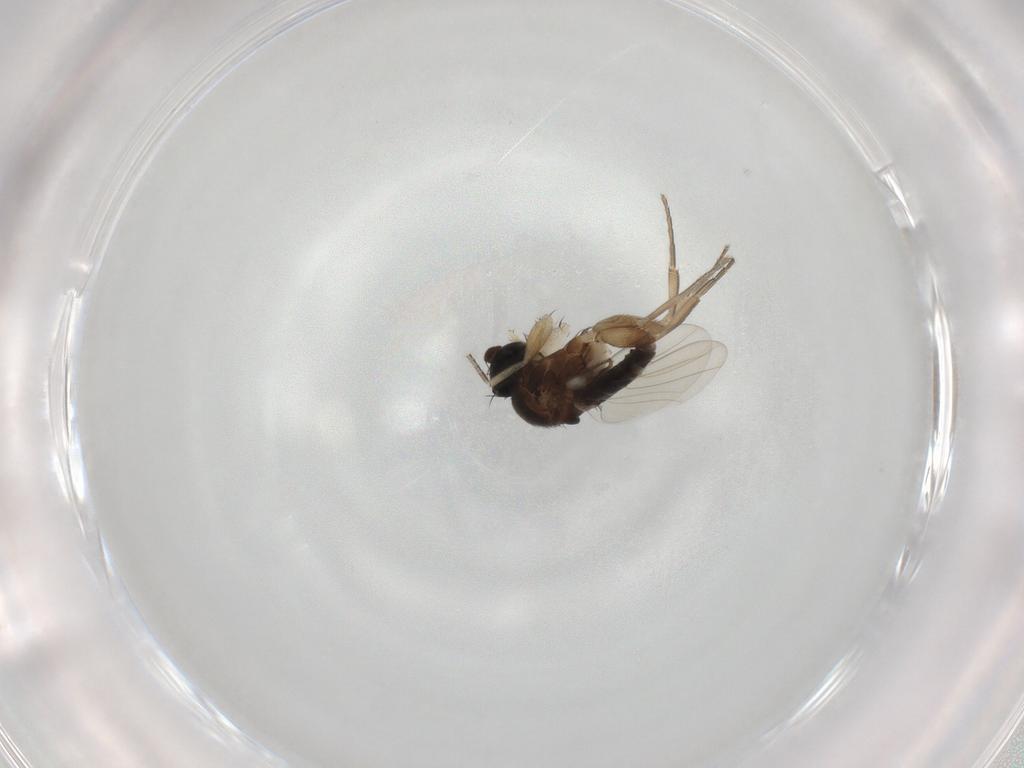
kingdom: Animalia
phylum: Arthropoda
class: Insecta
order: Diptera
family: Phoridae
